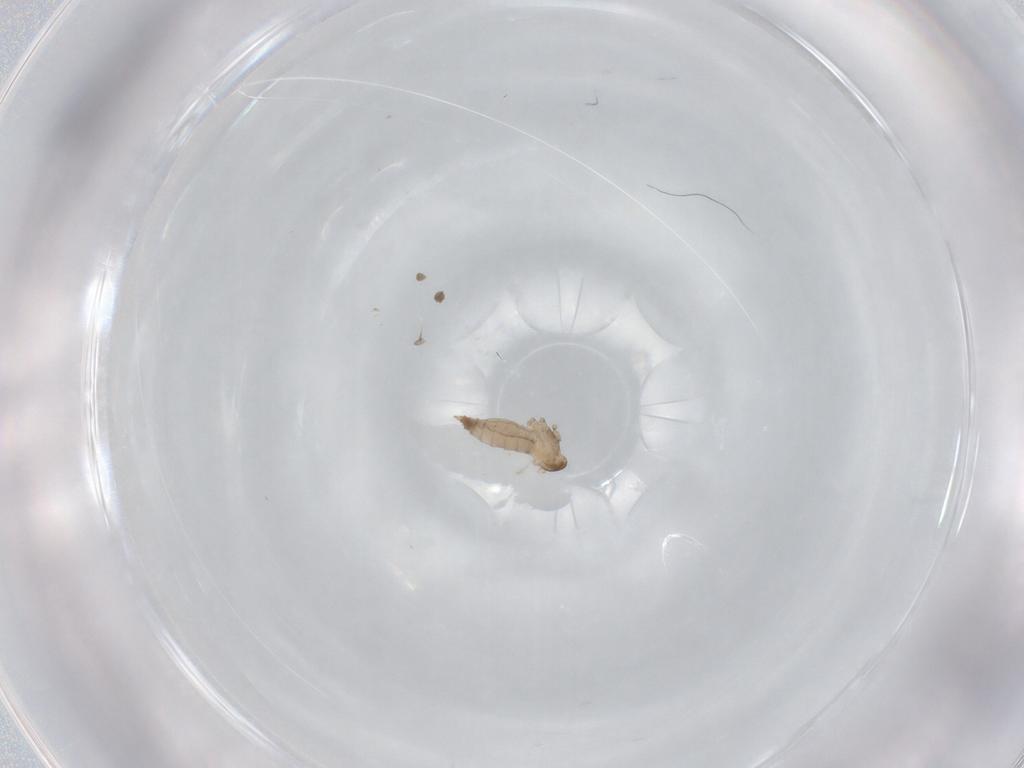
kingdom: Animalia
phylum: Arthropoda
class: Insecta
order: Diptera
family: Cecidomyiidae
